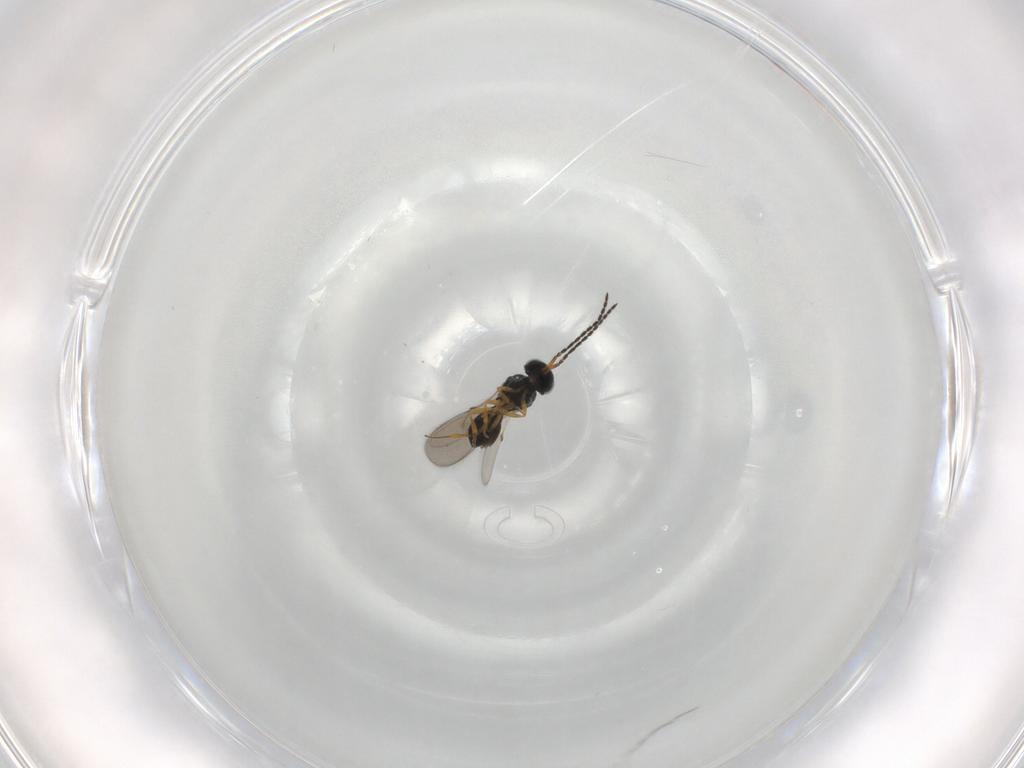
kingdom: Animalia
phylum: Arthropoda
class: Insecta
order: Hymenoptera
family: Scelionidae
